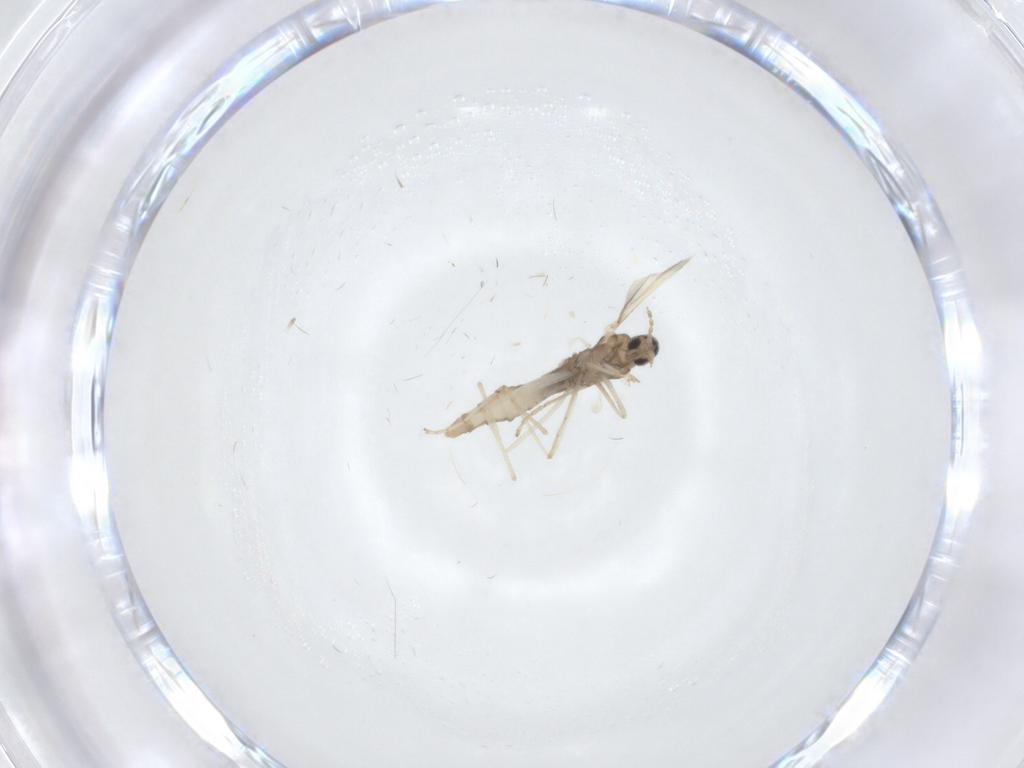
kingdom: Animalia
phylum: Arthropoda
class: Insecta
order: Diptera
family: Cecidomyiidae
